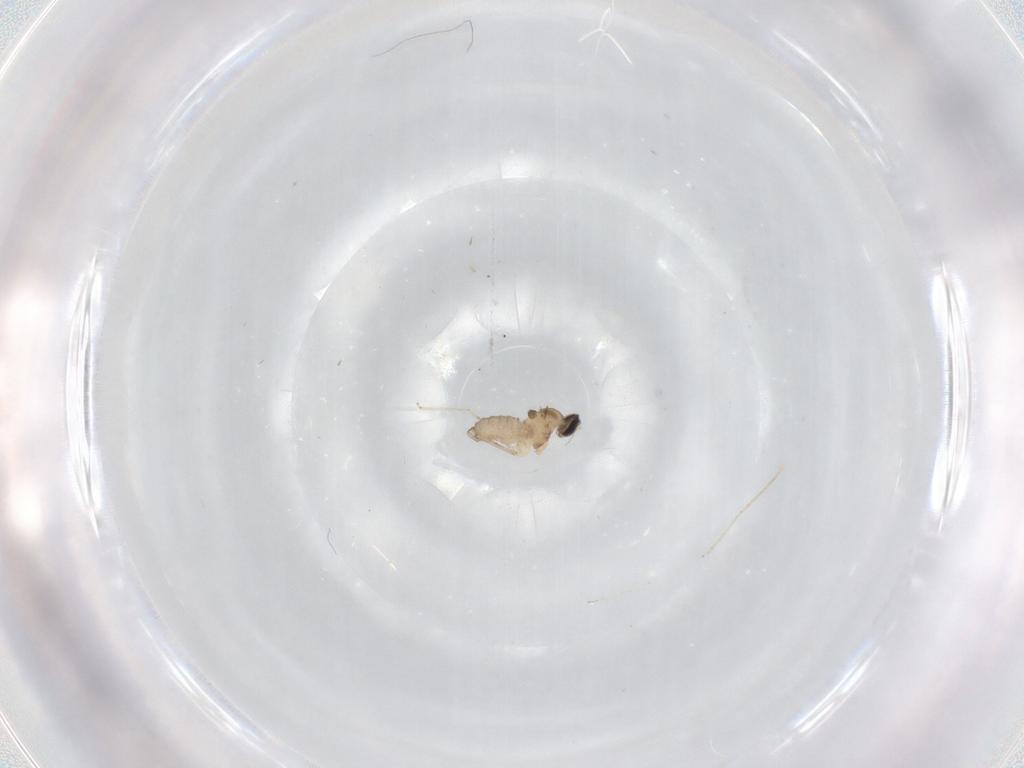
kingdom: Animalia
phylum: Arthropoda
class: Insecta
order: Diptera
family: Cecidomyiidae
